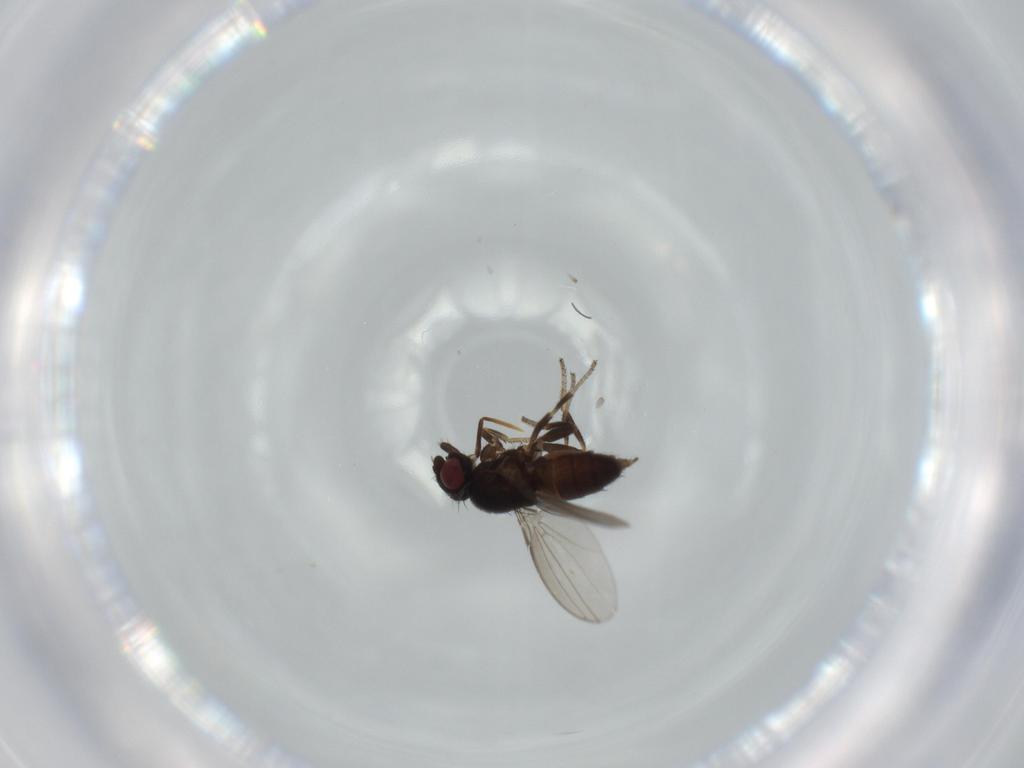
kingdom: Animalia
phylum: Arthropoda
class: Insecta
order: Diptera
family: Milichiidae
